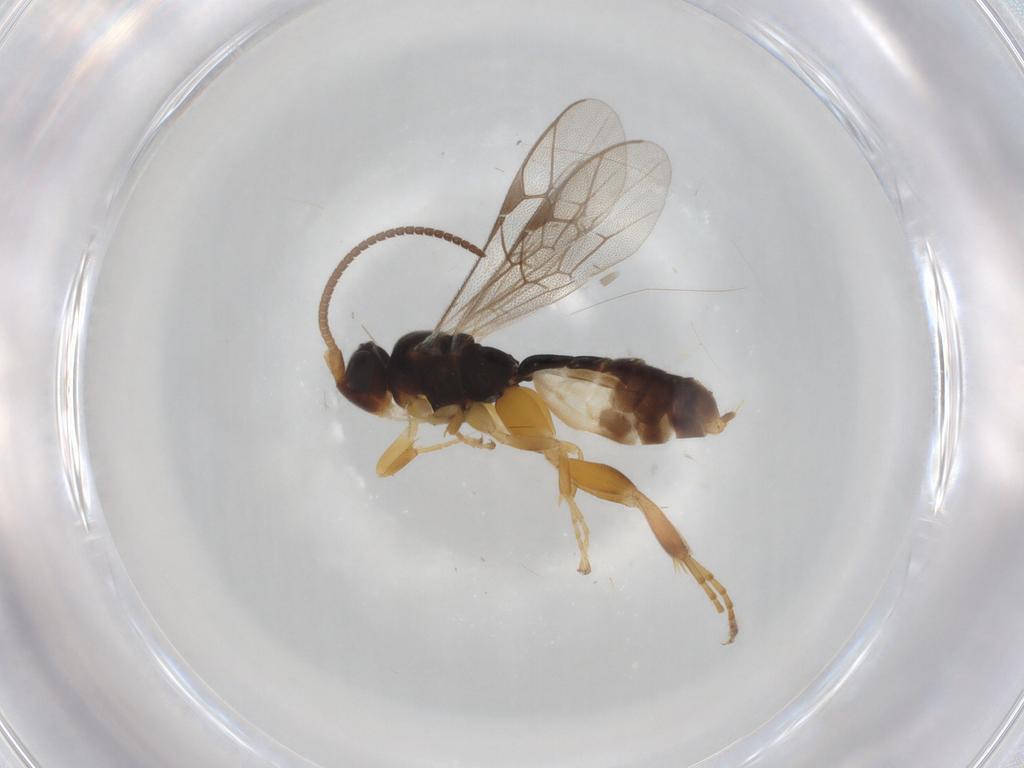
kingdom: Animalia
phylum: Arthropoda
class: Insecta
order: Hymenoptera
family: Ichneumonidae
